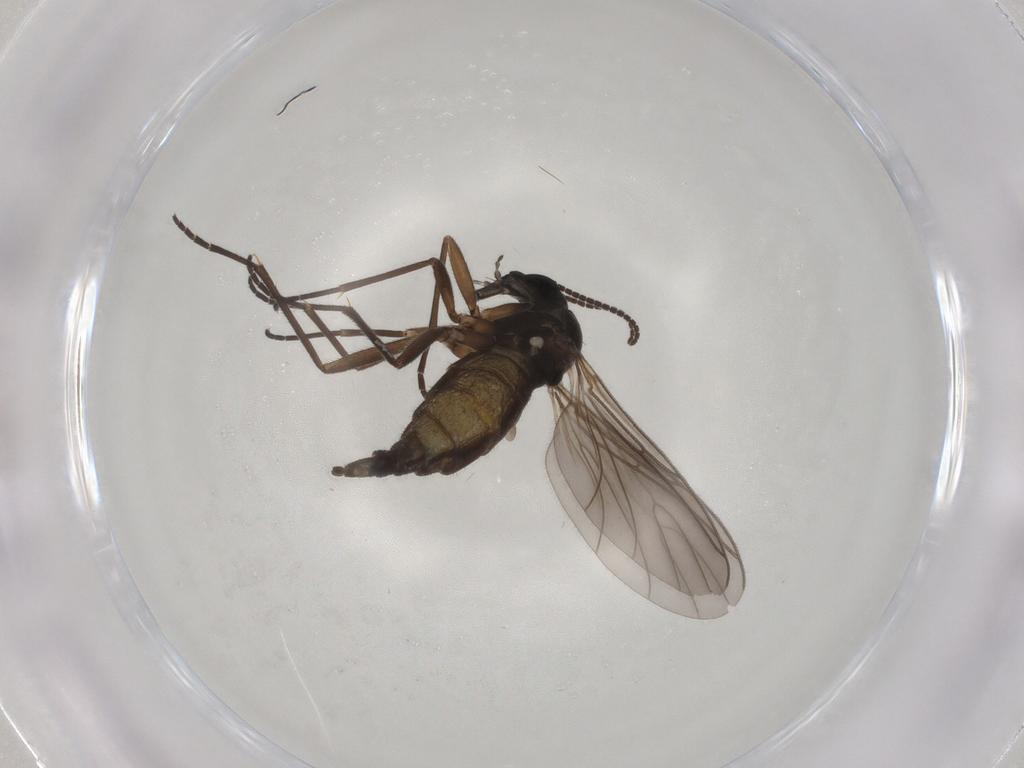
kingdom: Animalia
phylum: Arthropoda
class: Insecta
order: Diptera
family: Sciaridae
